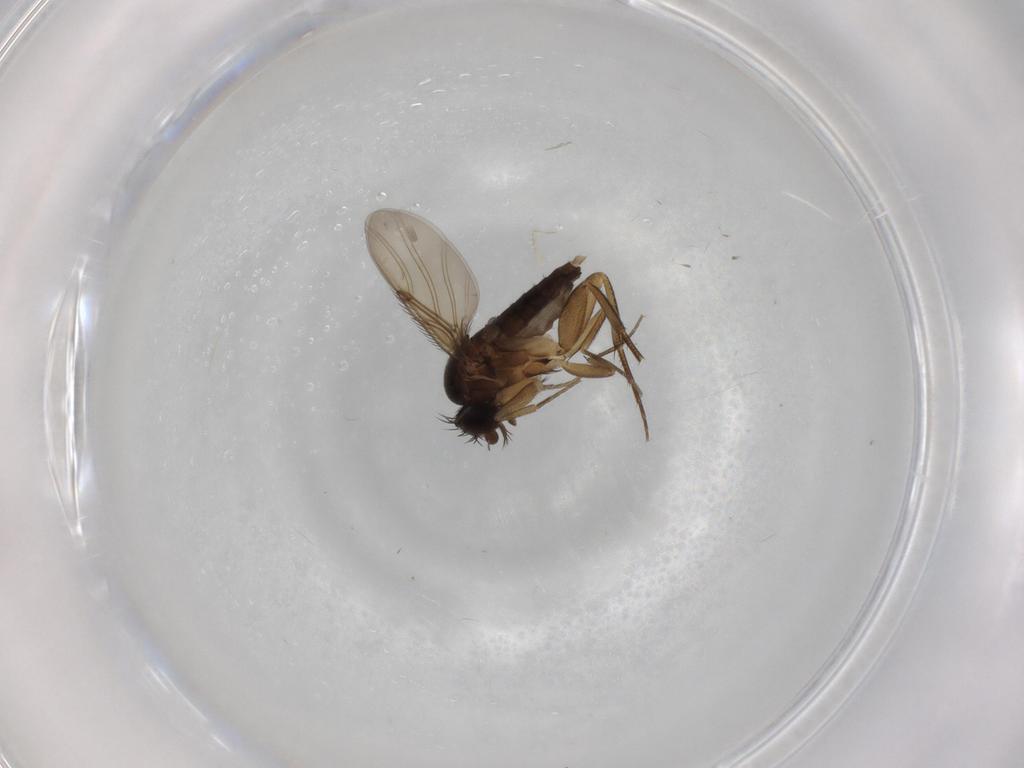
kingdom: Animalia
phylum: Arthropoda
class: Insecta
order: Diptera
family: Phoridae
